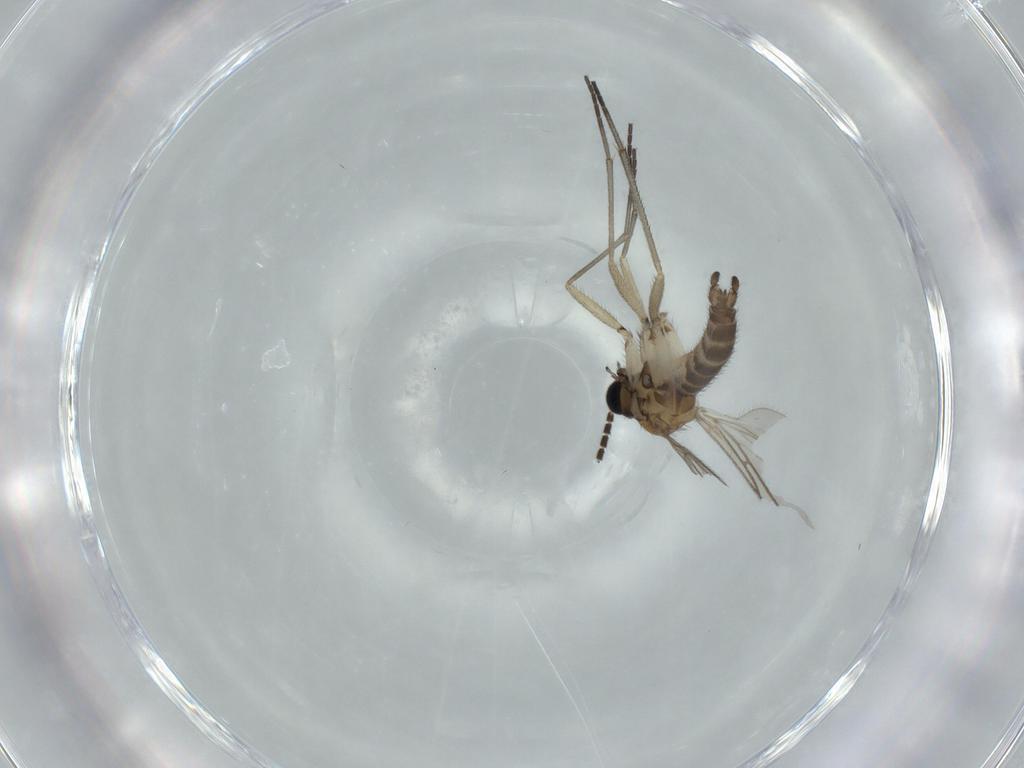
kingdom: Animalia
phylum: Arthropoda
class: Insecta
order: Diptera
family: Sciaridae
